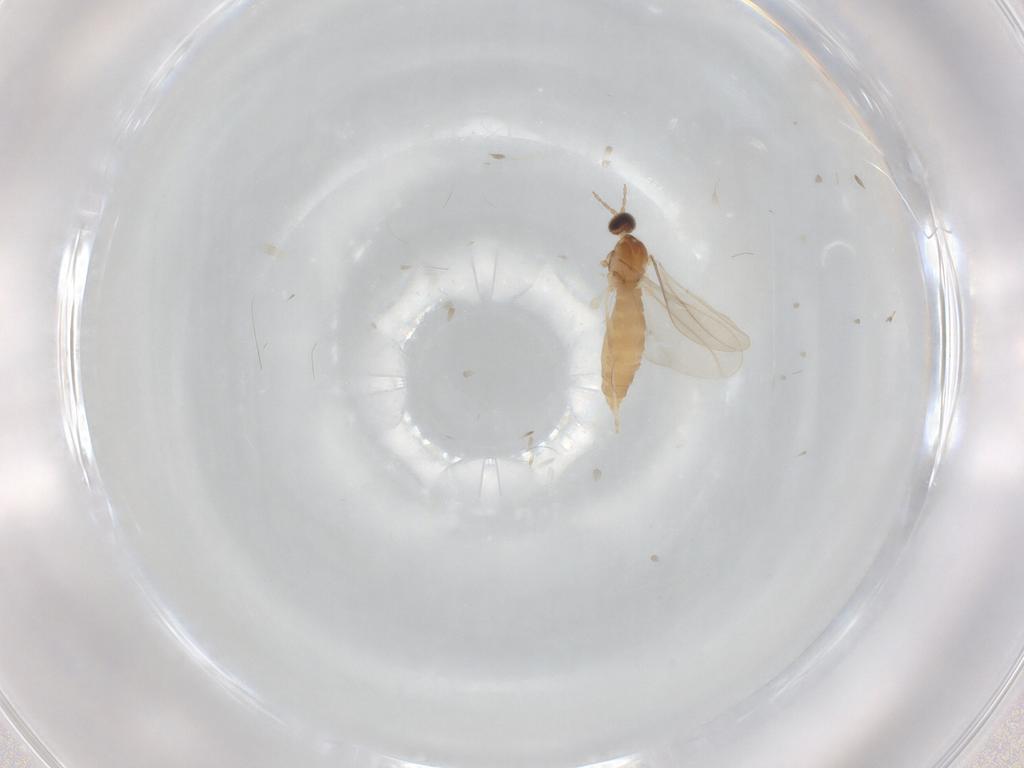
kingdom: Animalia
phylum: Arthropoda
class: Insecta
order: Diptera
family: Cecidomyiidae
